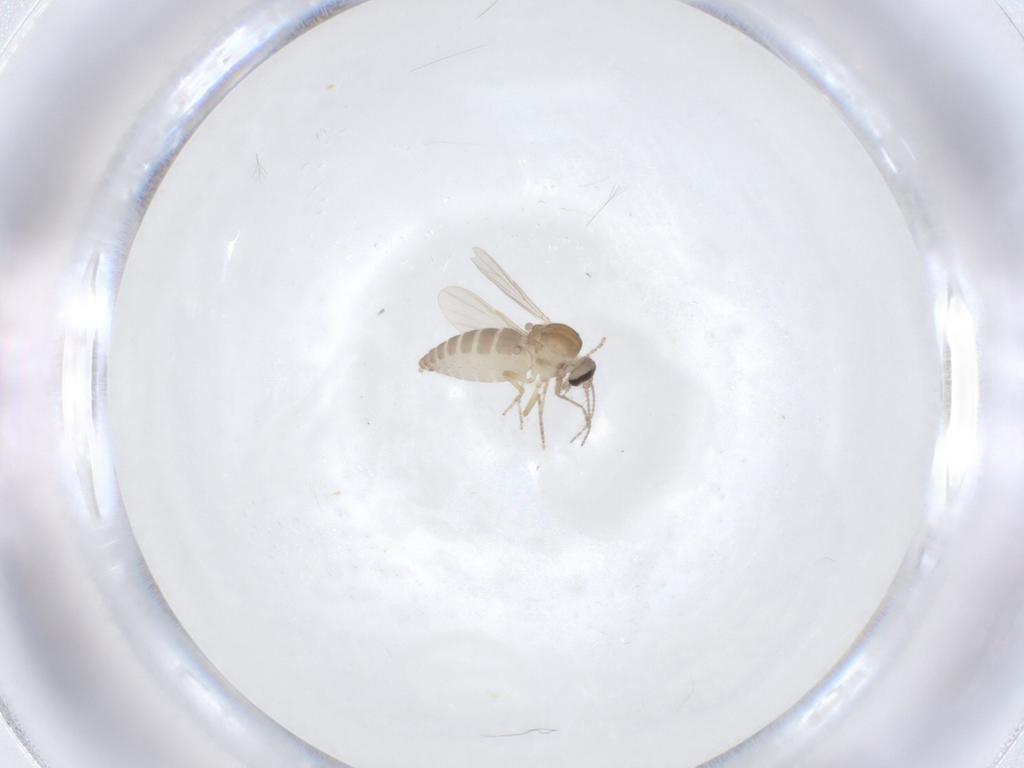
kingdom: Animalia
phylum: Arthropoda
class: Insecta
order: Diptera
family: Ceratopogonidae
